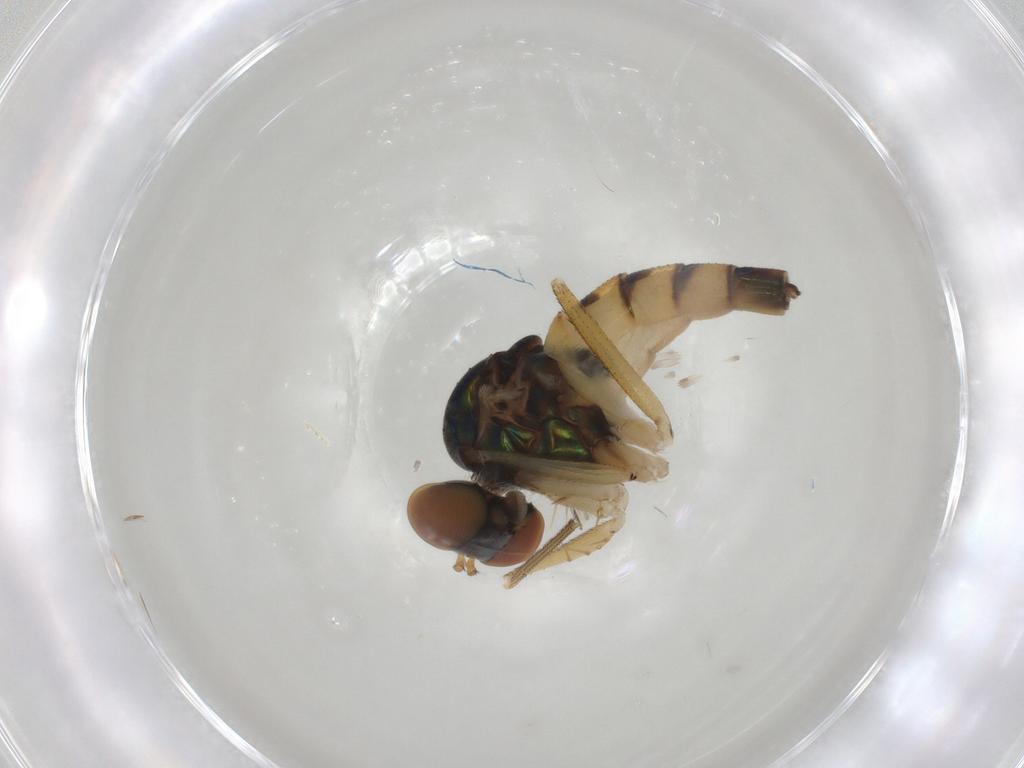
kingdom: Animalia
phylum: Arthropoda
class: Insecta
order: Diptera
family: Dolichopodidae
